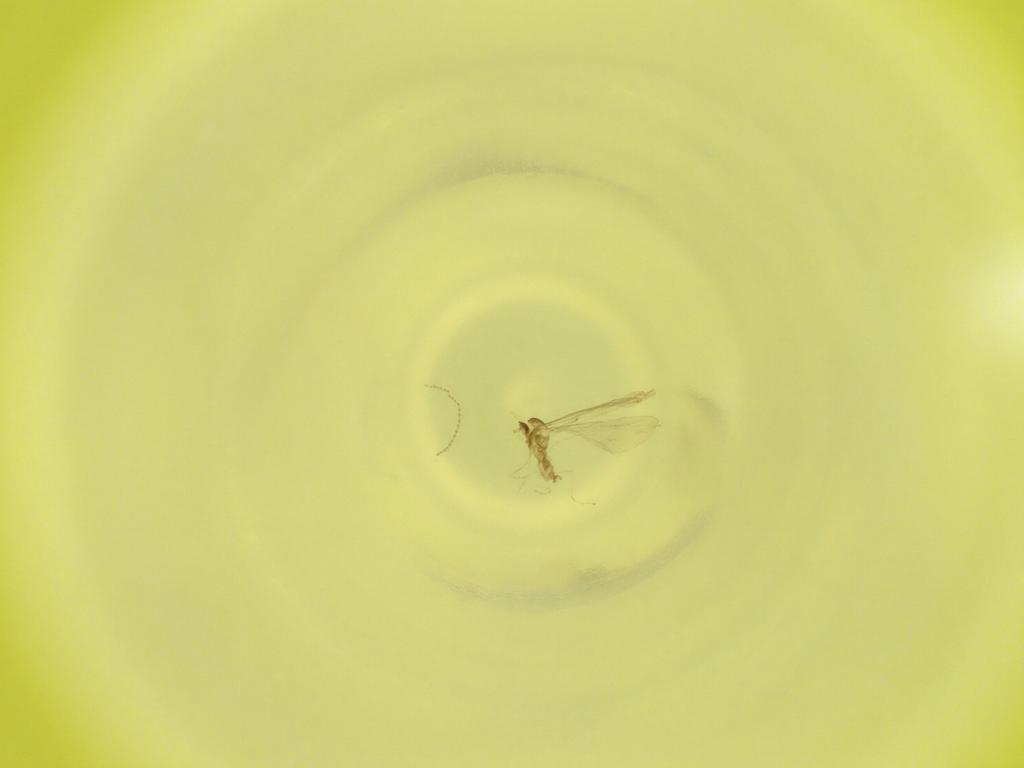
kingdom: Animalia
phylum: Arthropoda
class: Insecta
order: Diptera
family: Cecidomyiidae
